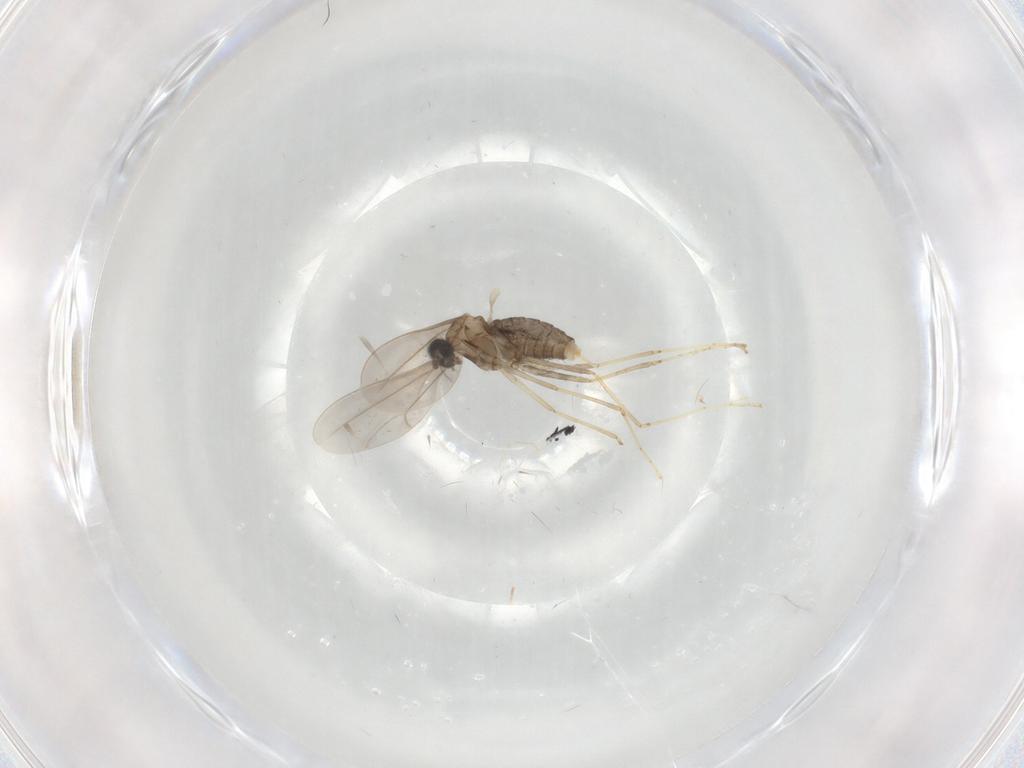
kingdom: Animalia
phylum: Arthropoda
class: Insecta
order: Diptera
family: Cecidomyiidae
